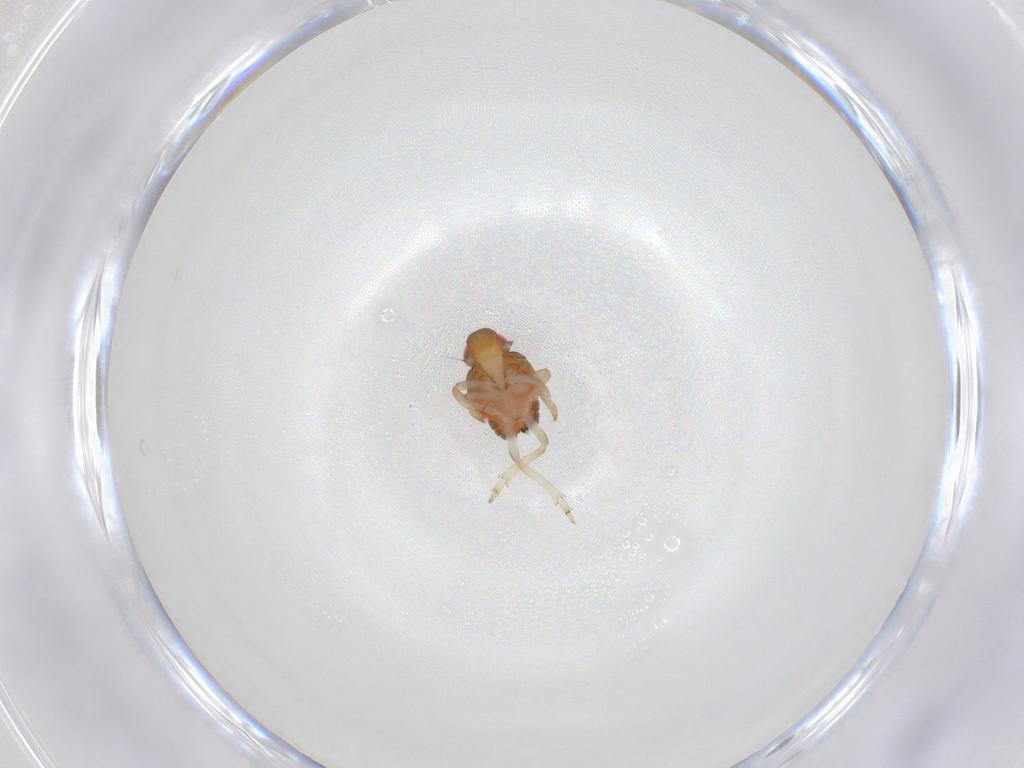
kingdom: Animalia
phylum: Arthropoda
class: Insecta
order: Hemiptera
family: Issidae
